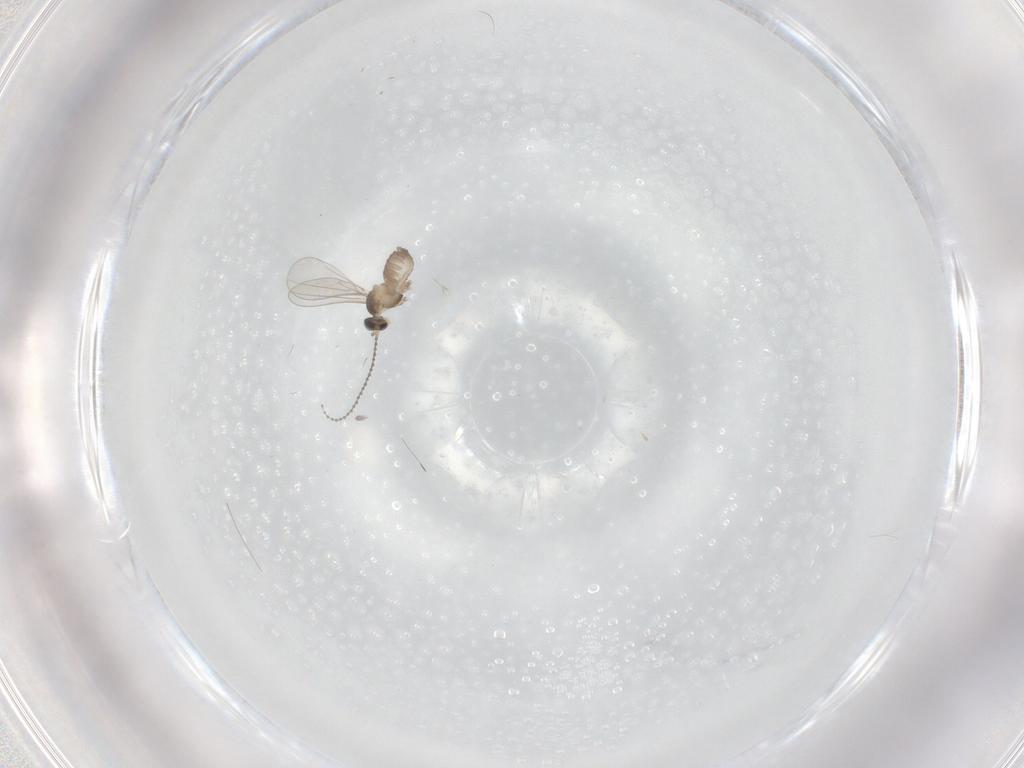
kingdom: Animalia
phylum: Arthropoda
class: Insecta
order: Diptera
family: Cecidomyiidae
